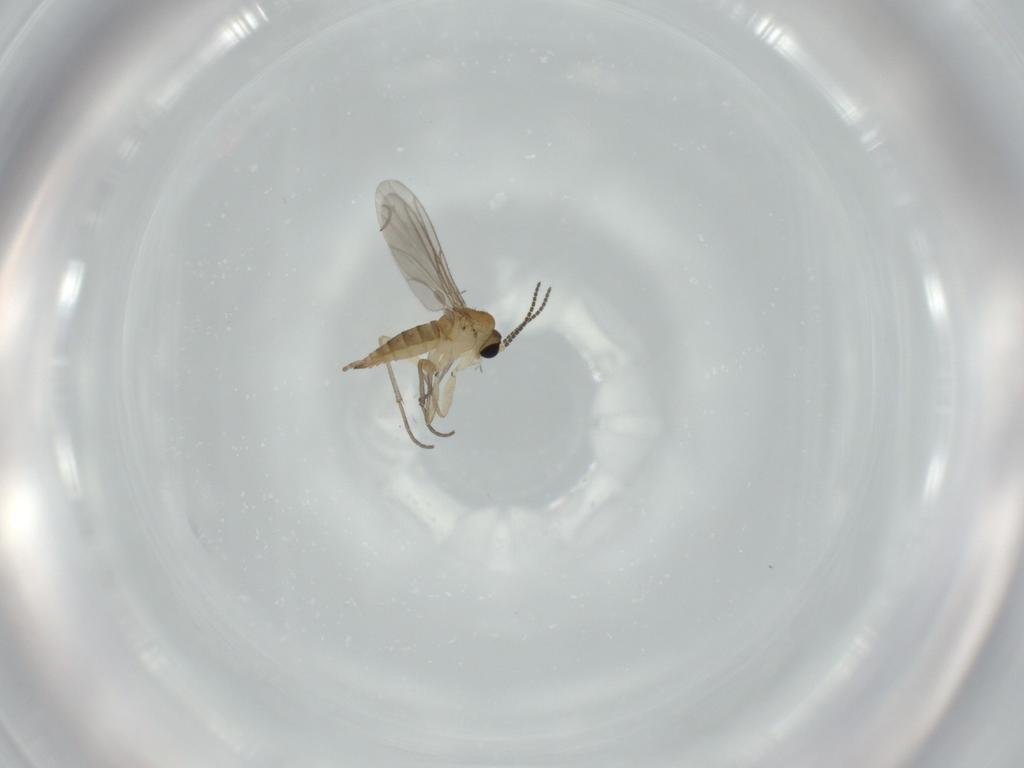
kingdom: Animalia
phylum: Arthropoda
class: Insecta
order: Diptera
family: Sciaridae
